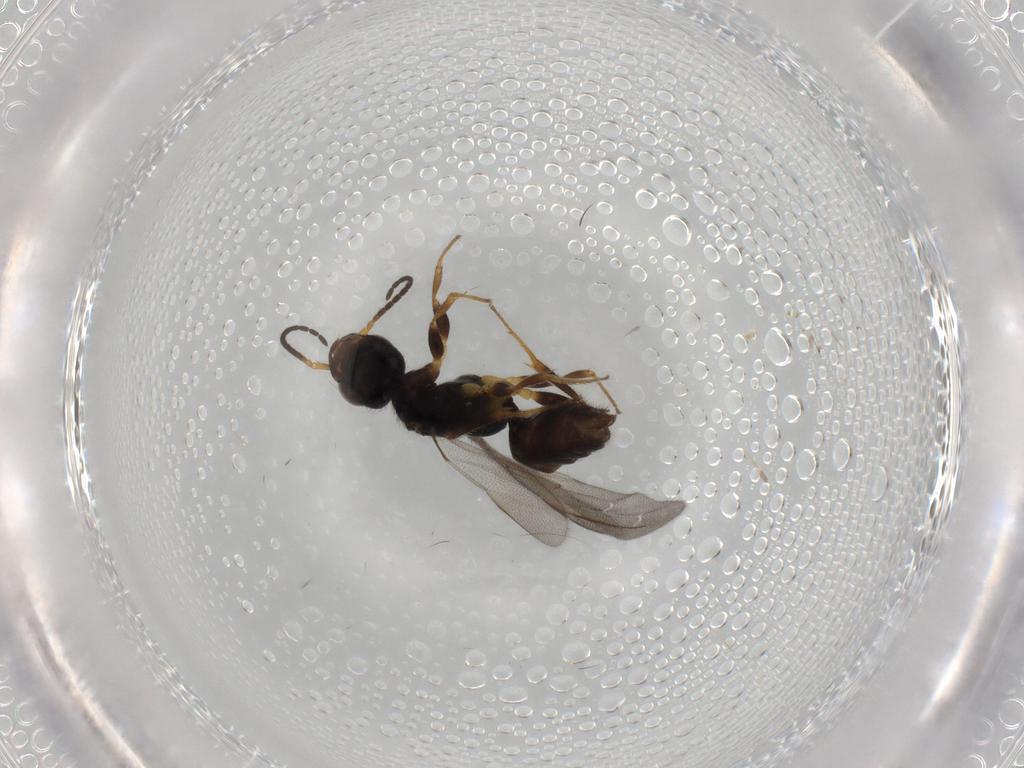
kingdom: Animalia
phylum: Arthropoda
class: Insecta
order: Hymenoptera
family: Bethylidae
